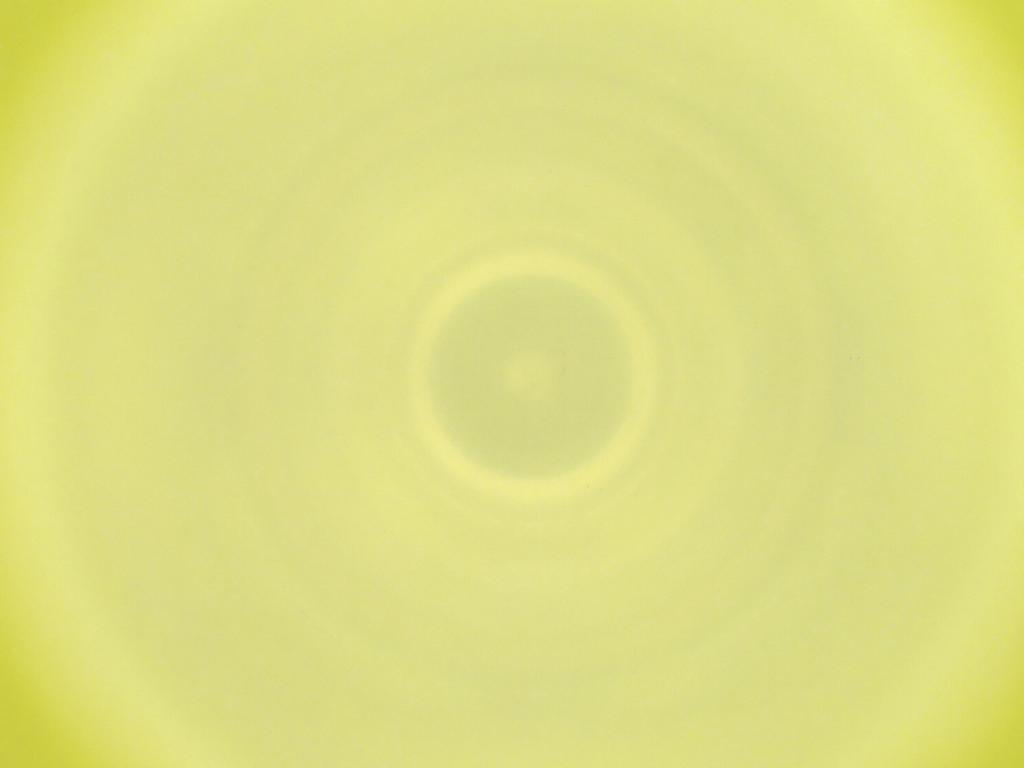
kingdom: Animalia
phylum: Arthropoda
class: Insecta
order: Diptera
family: Cecidomyiidae
